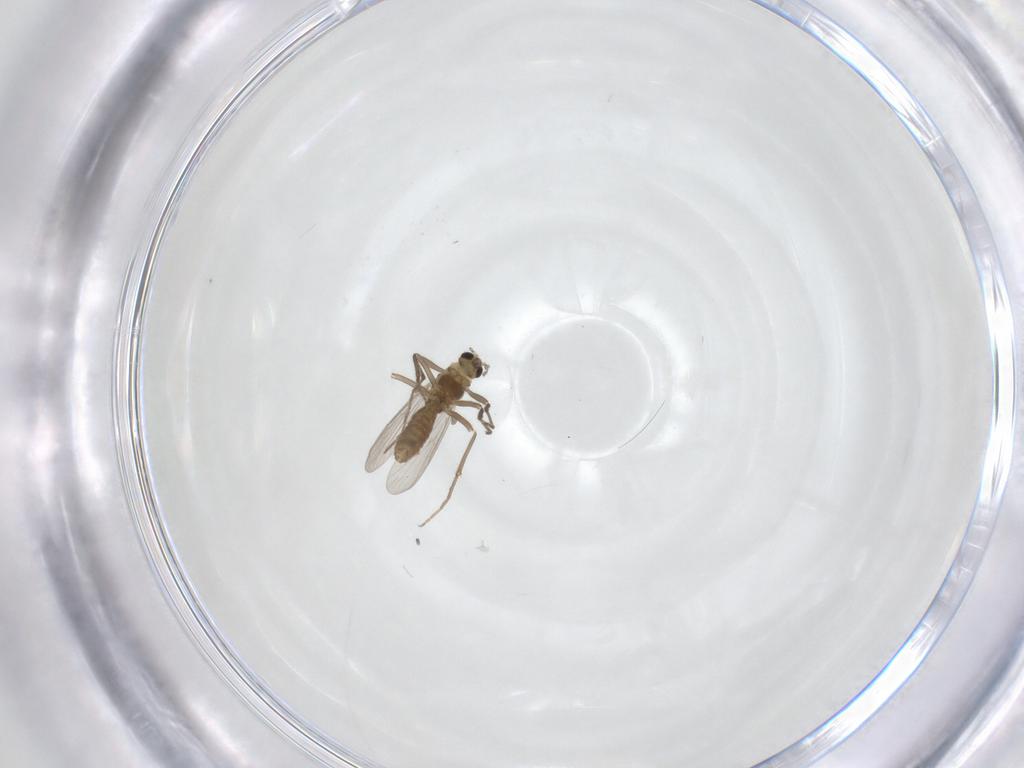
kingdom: Animalia
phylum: Arthropoda
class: Insecta
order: Diptera
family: Chironomidae
